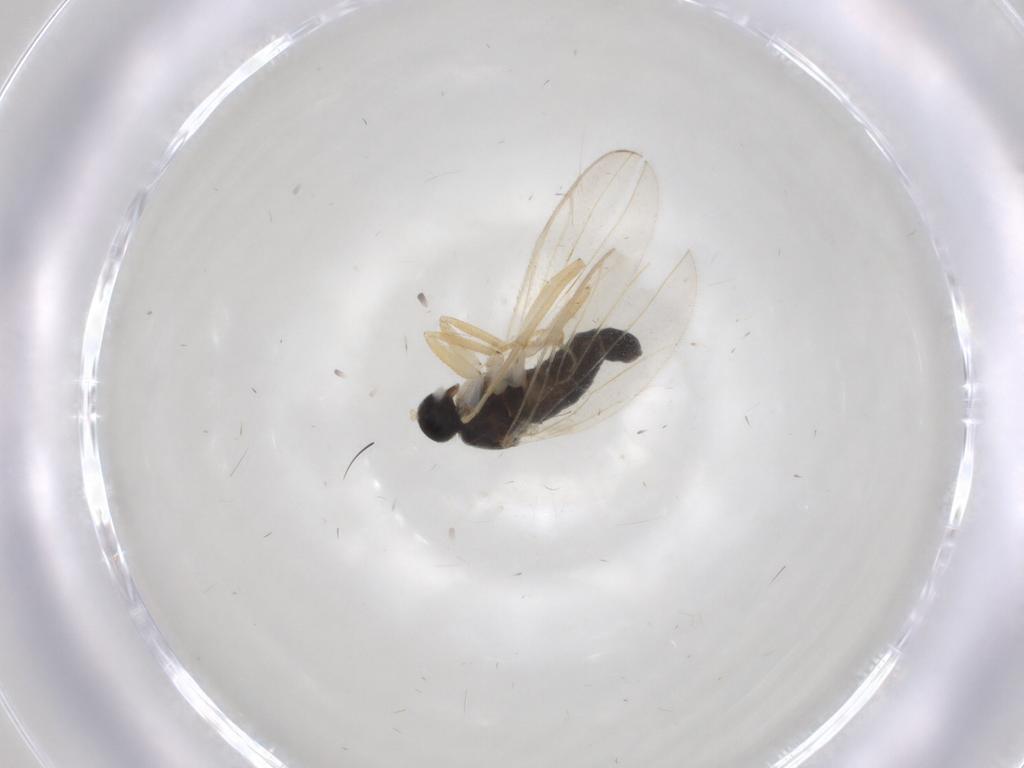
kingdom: Animalia
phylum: Arthropoda
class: Insecta
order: Diptera
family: Hybotidae
